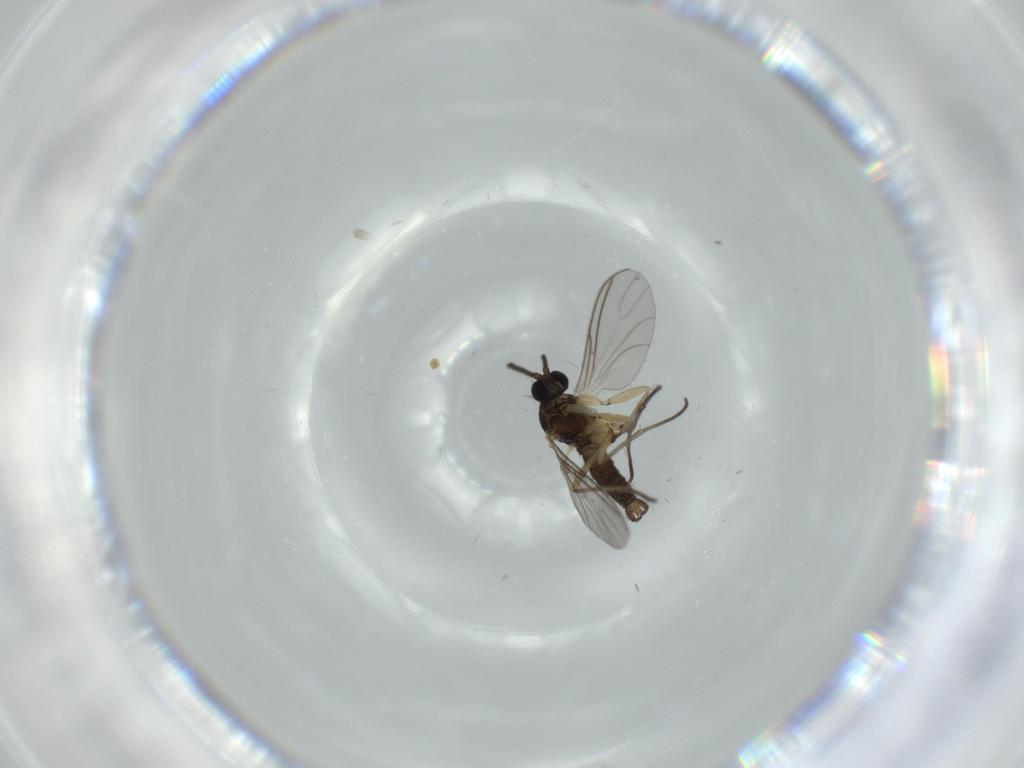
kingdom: Animalia
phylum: Arthropoda
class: Insecta
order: Diptera
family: Sciaridae
